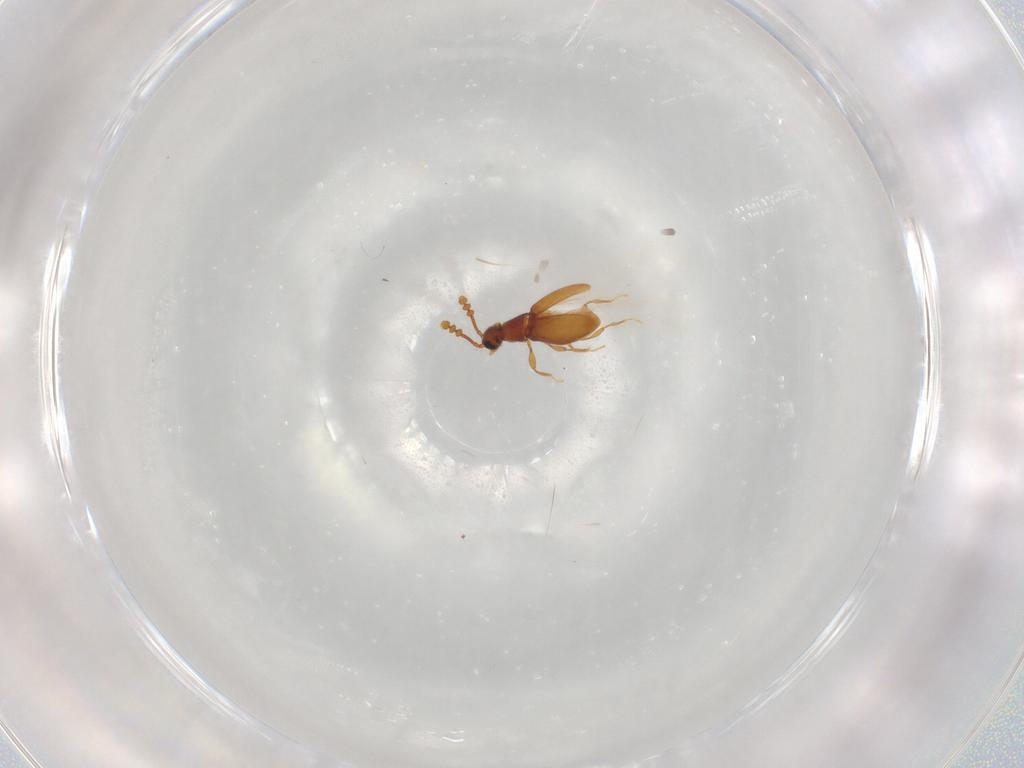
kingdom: Animalia
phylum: Arthropoda
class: Insecta
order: Coleoptera
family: Staphylinidae
